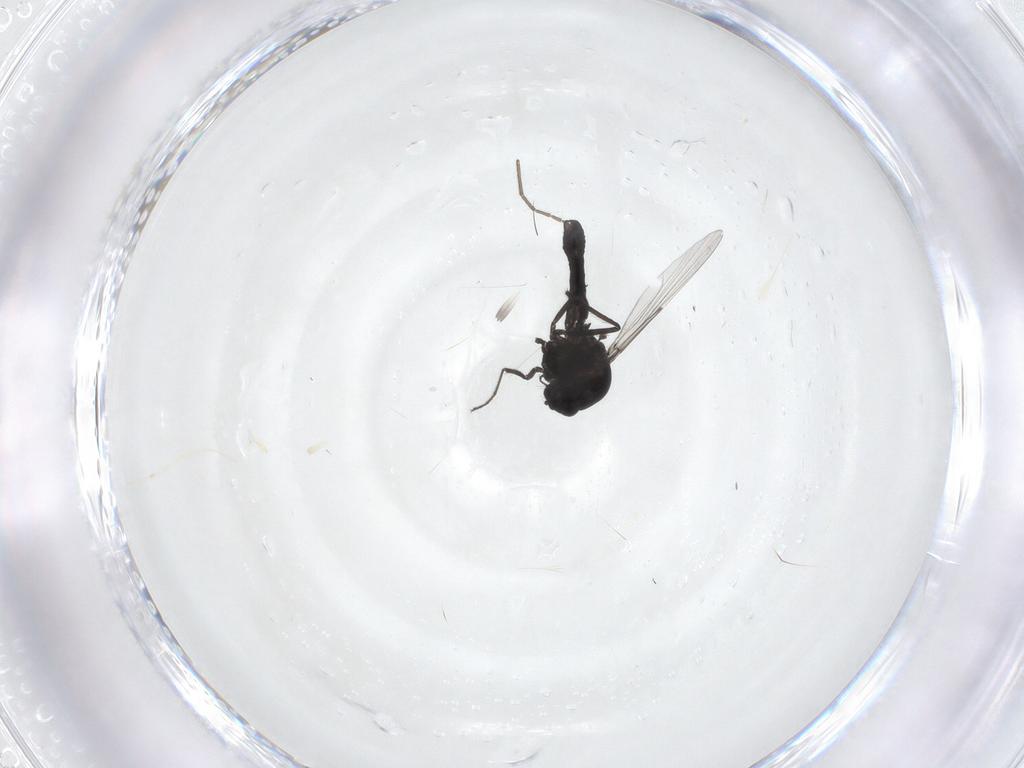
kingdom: Animalia
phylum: Arthropoda
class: Insecta
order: Diptera
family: Ceratopogonidae
